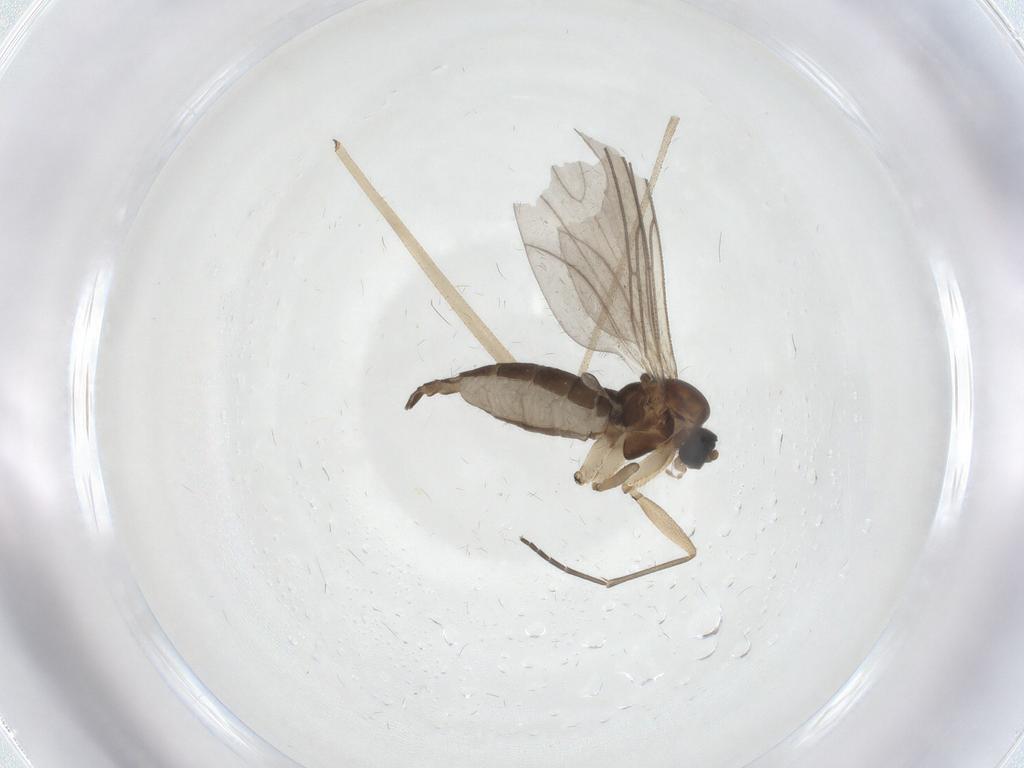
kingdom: Animalia
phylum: Arthropoda
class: Insecta
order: Diptera
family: Sciaridae
